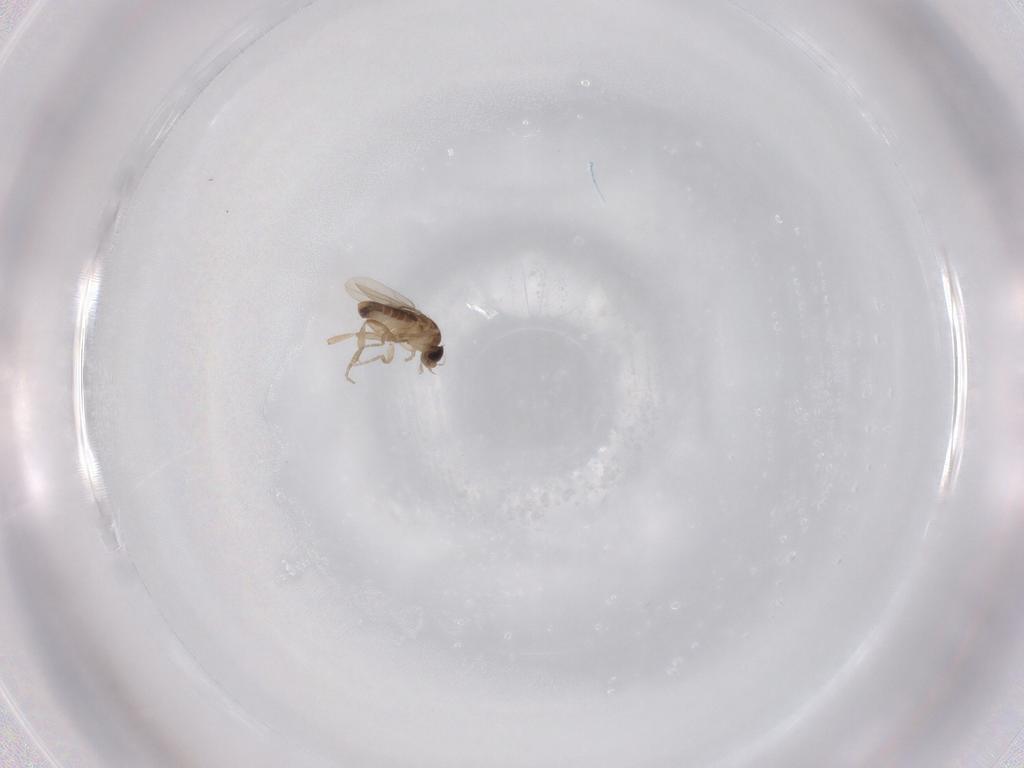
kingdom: Animalia
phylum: Arthropoda
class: Insecta
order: Diptera
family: Phoridae
